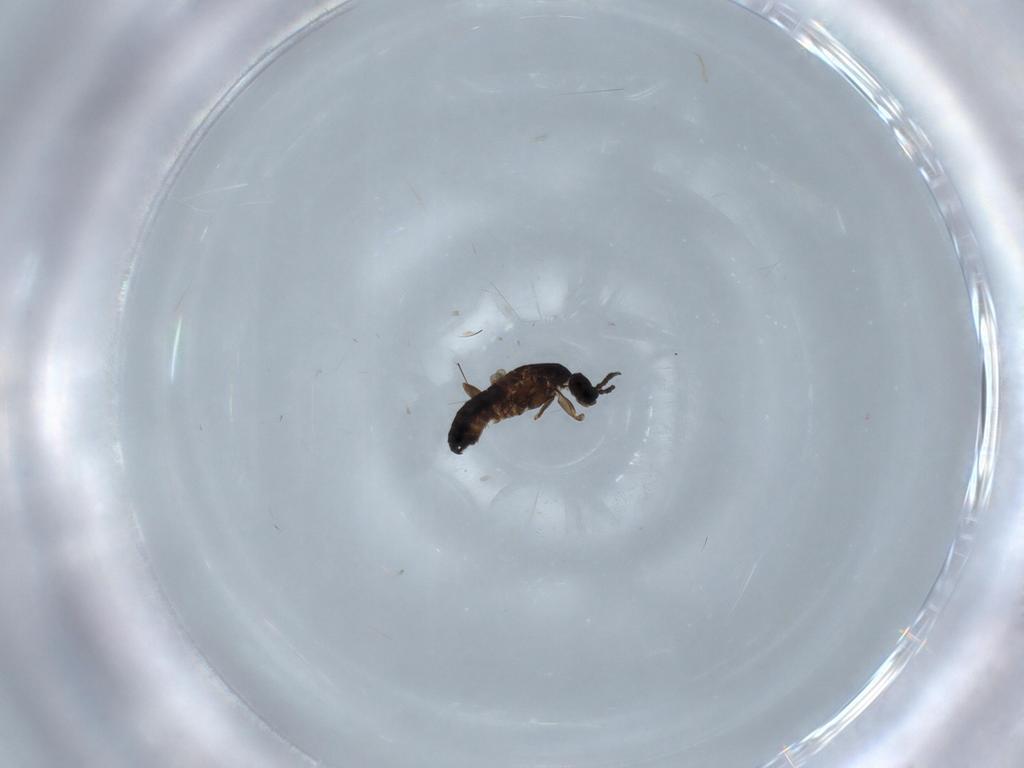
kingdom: Animalia
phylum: Arthropoda
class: Insecta
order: Diptera
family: Scatopsidae
